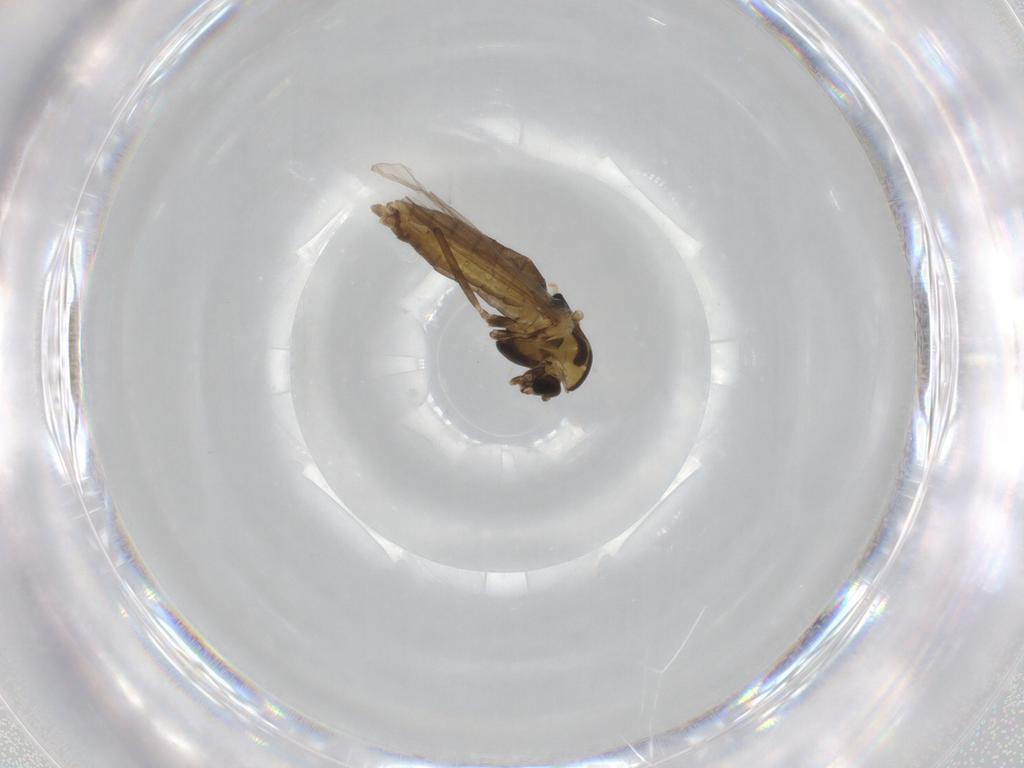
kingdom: Animalia
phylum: Arthropoda
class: Insecta
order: Diptera
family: Chironomidae
